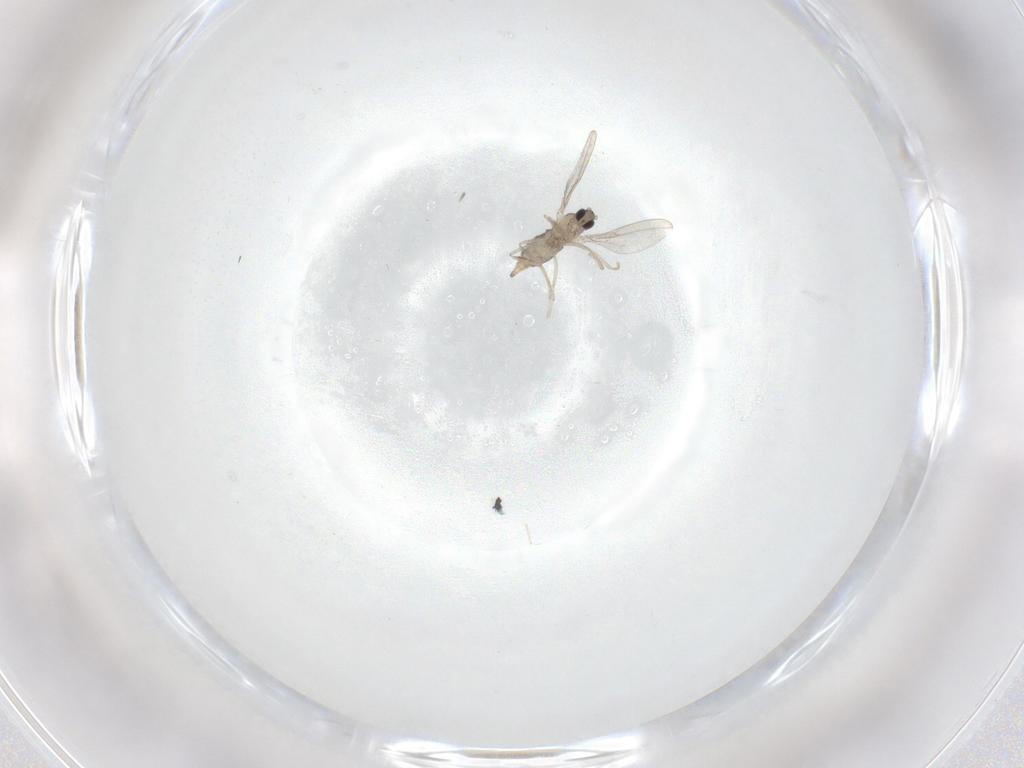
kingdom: Animalia
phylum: Arthropoda
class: Insecta
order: Diptera
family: Cecidomyiidae
